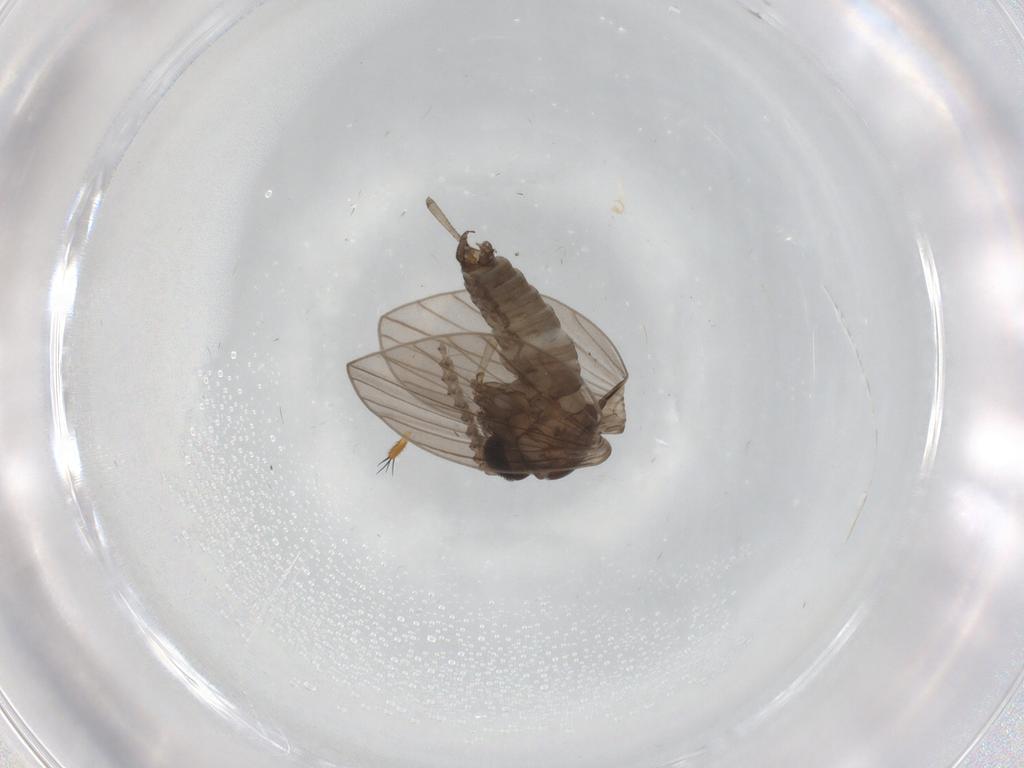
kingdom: Animalia
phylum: Arthropoda
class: Insecta
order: Diptera
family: Cecidomyiidae
